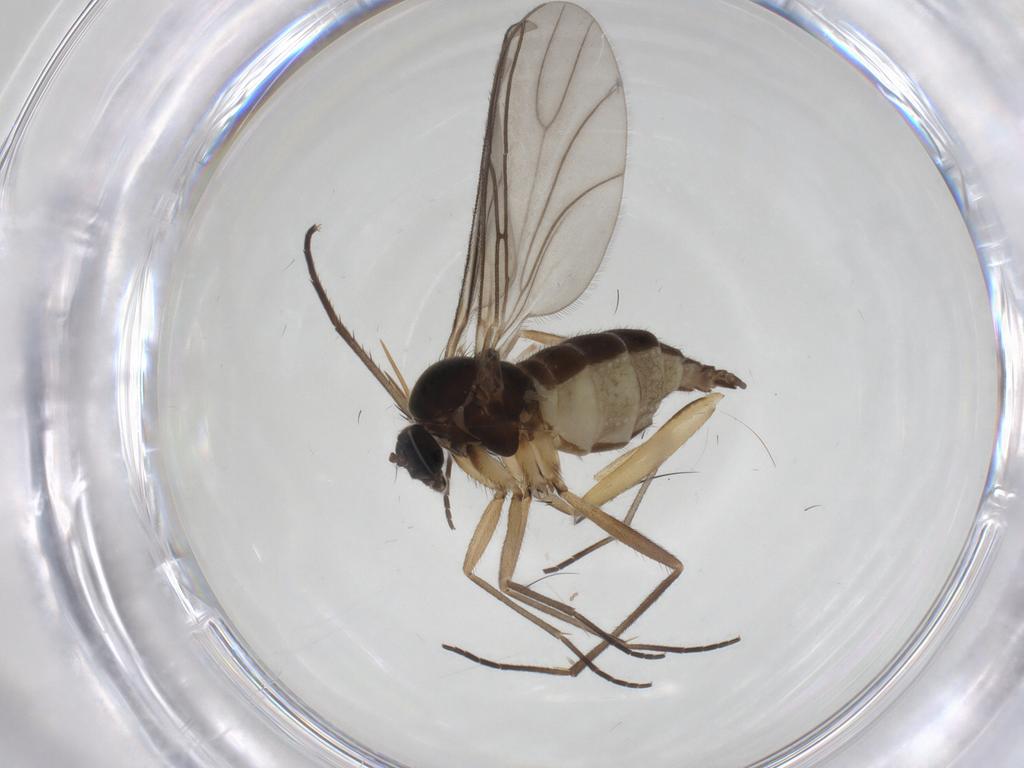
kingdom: Animalia
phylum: Arthropoda
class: Insecta
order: Diptera
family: Sciaridae
